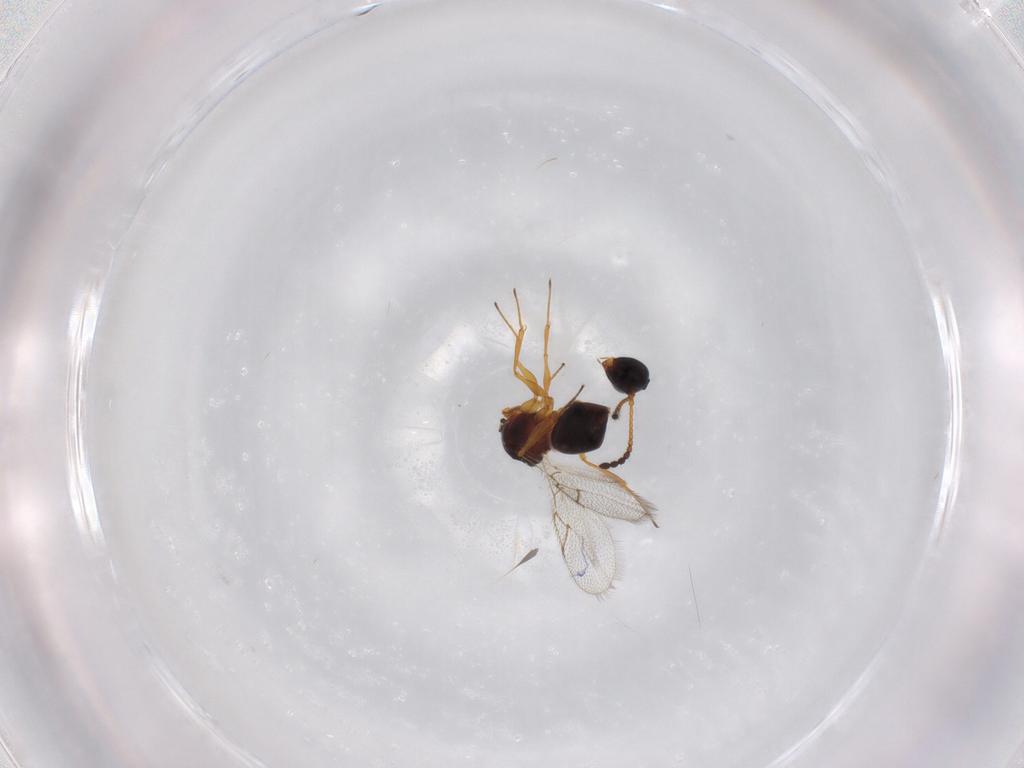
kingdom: Animalia
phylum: Arthropoda
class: Insecta
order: Hymenoptera
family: Figitidae
